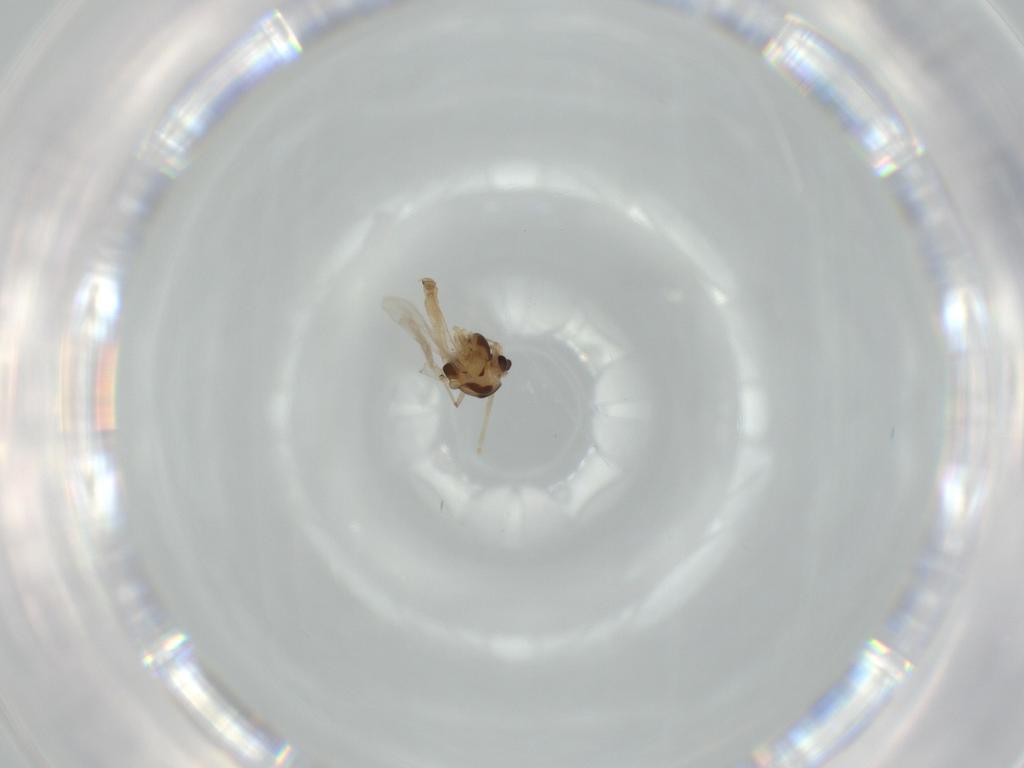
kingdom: Animalia
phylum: Arthropoda
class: Insecta
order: Diptera
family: Chironomidae
